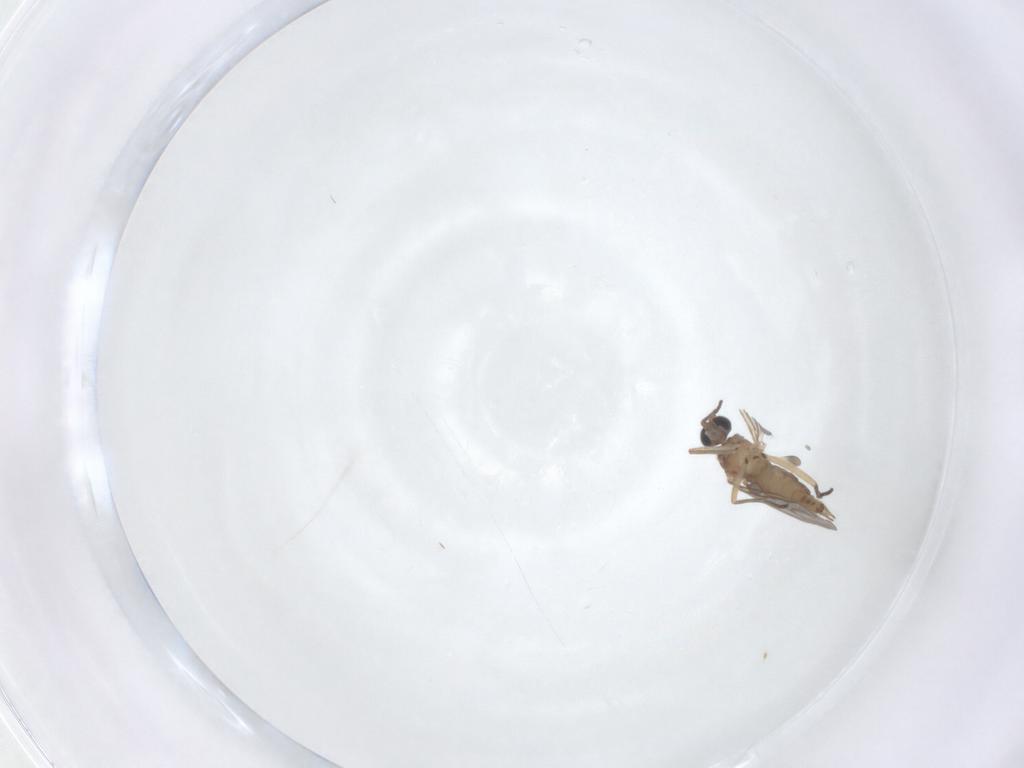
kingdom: Animalia
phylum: Arthropoda
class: Insecta
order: Diptera
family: Sciaridae
